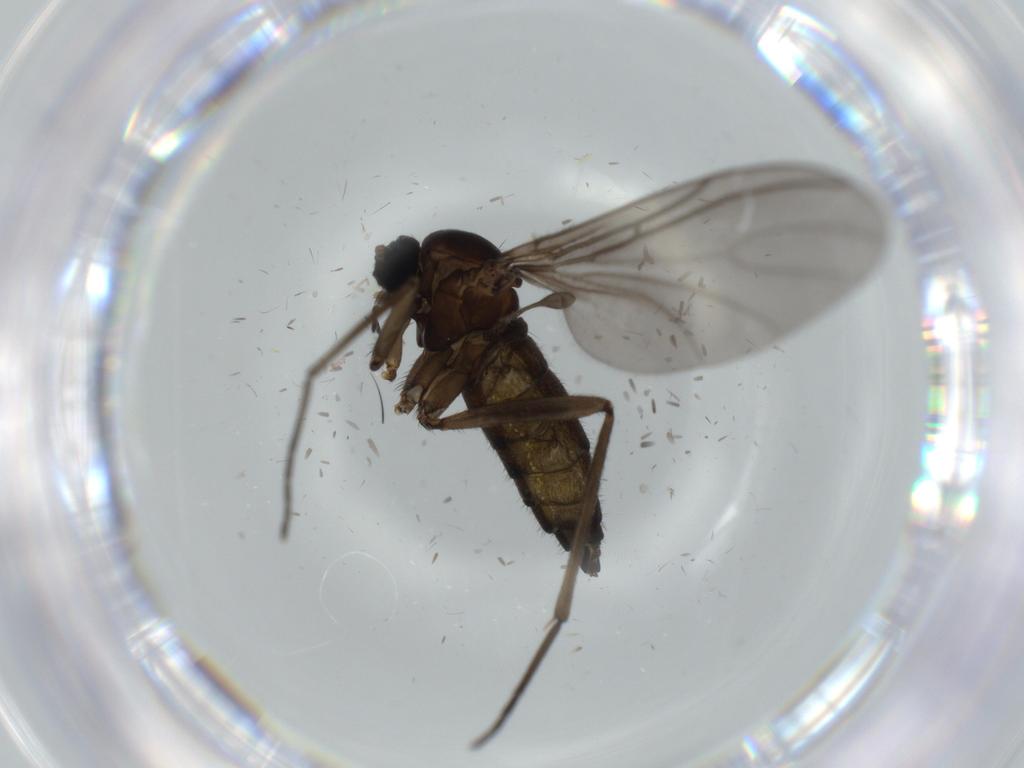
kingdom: Animalia
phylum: Arthropoda
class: Insecta
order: Diptera
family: Sciaridae
